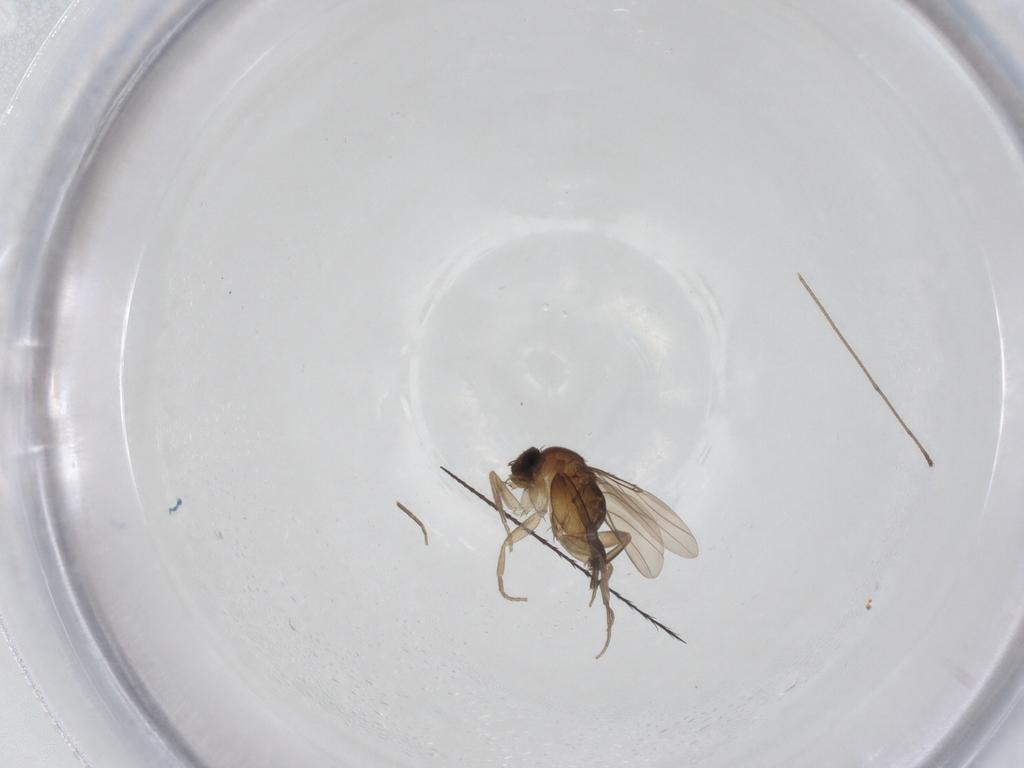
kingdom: Animalia
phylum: Arthropoda
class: Insecta
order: Diptera
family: Limoniidae
